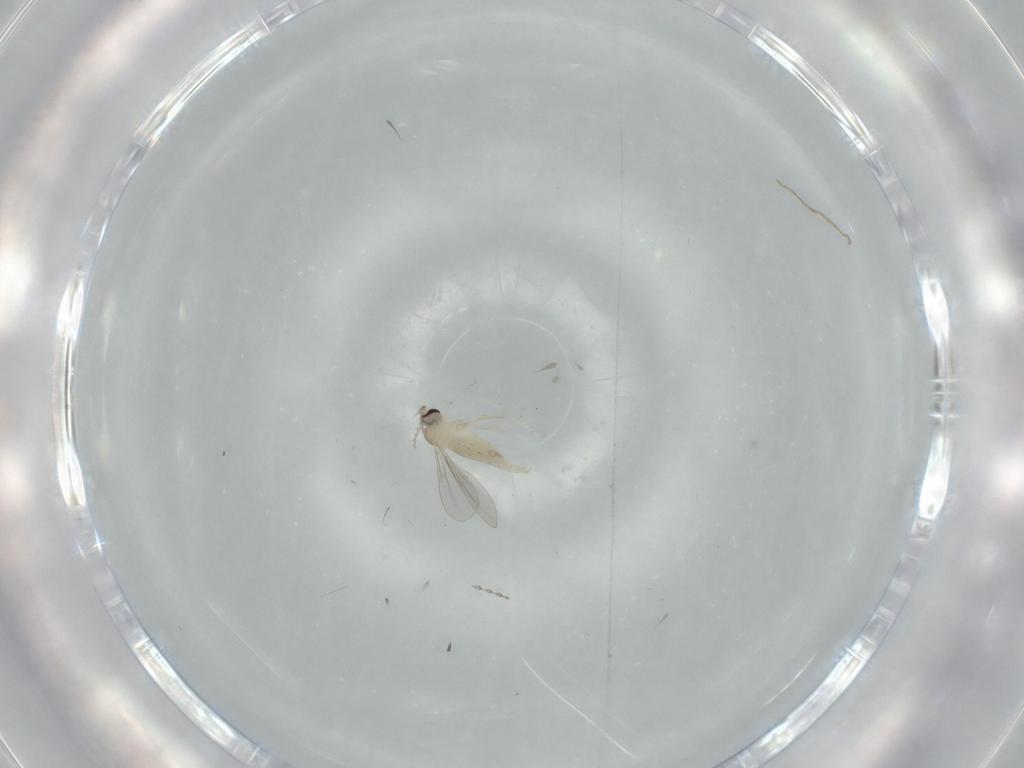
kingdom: Animalia
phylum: Arthropoda
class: Insecta
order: Diptera
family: Cecidomyiidae
